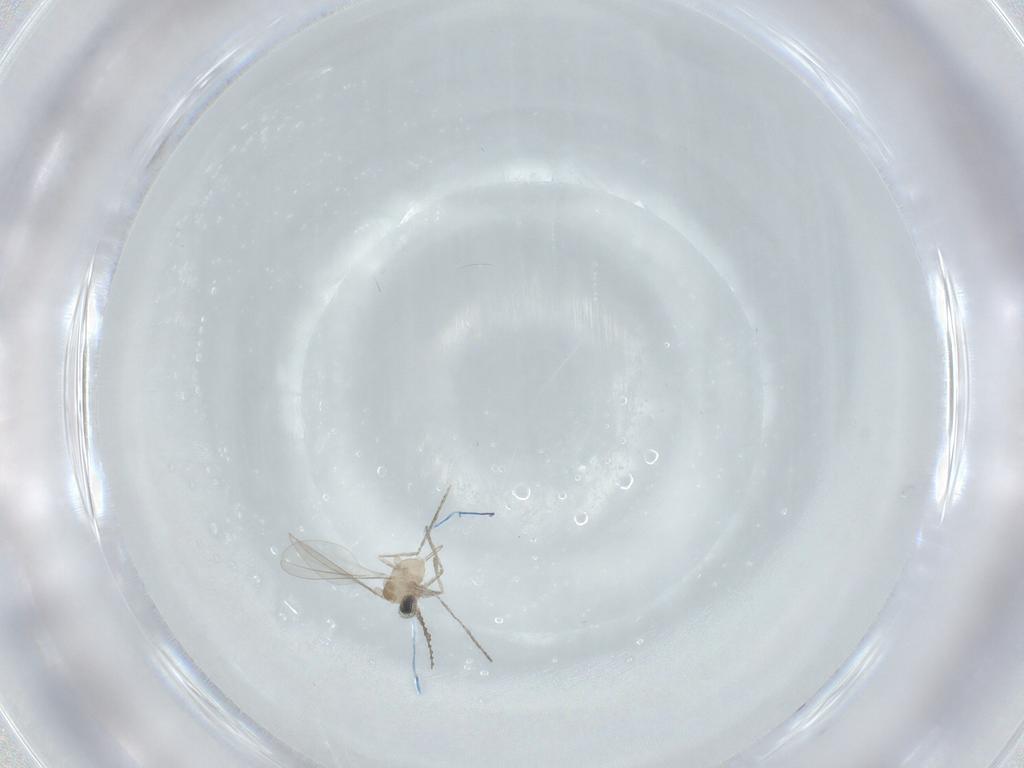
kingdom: Animalia
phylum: Arthropoda
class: Insecta
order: Diptera
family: Cecidomyiidae
